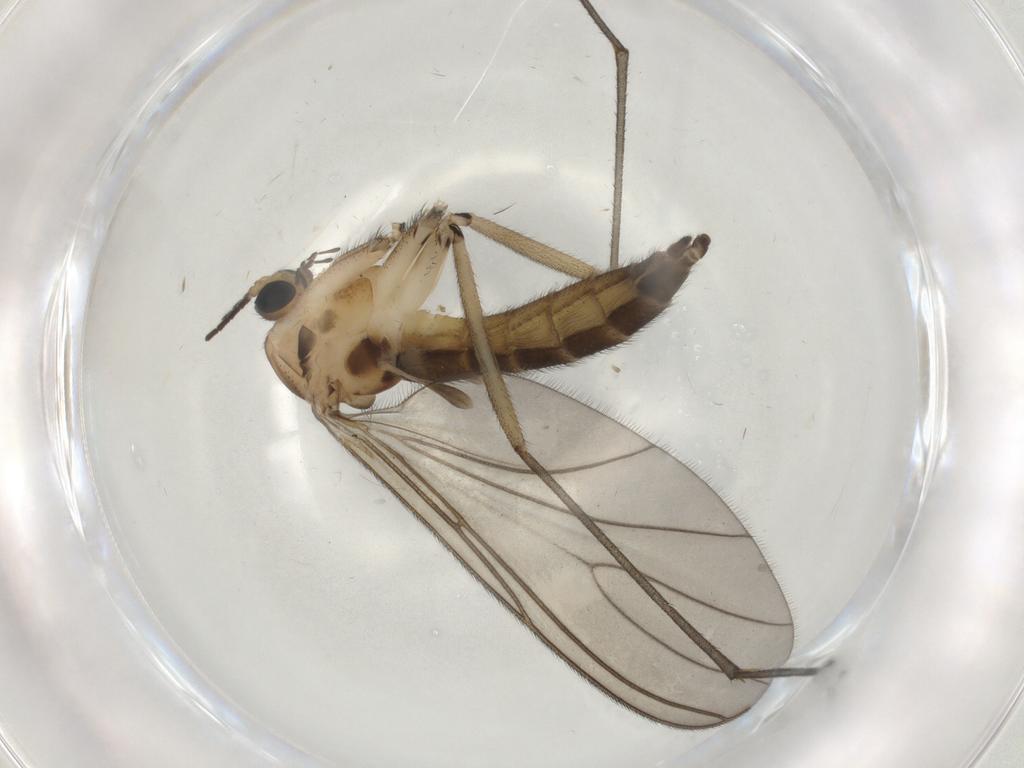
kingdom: Animalia
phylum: Arthropoda
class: Insecta
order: Diptera
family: Sciaridae
